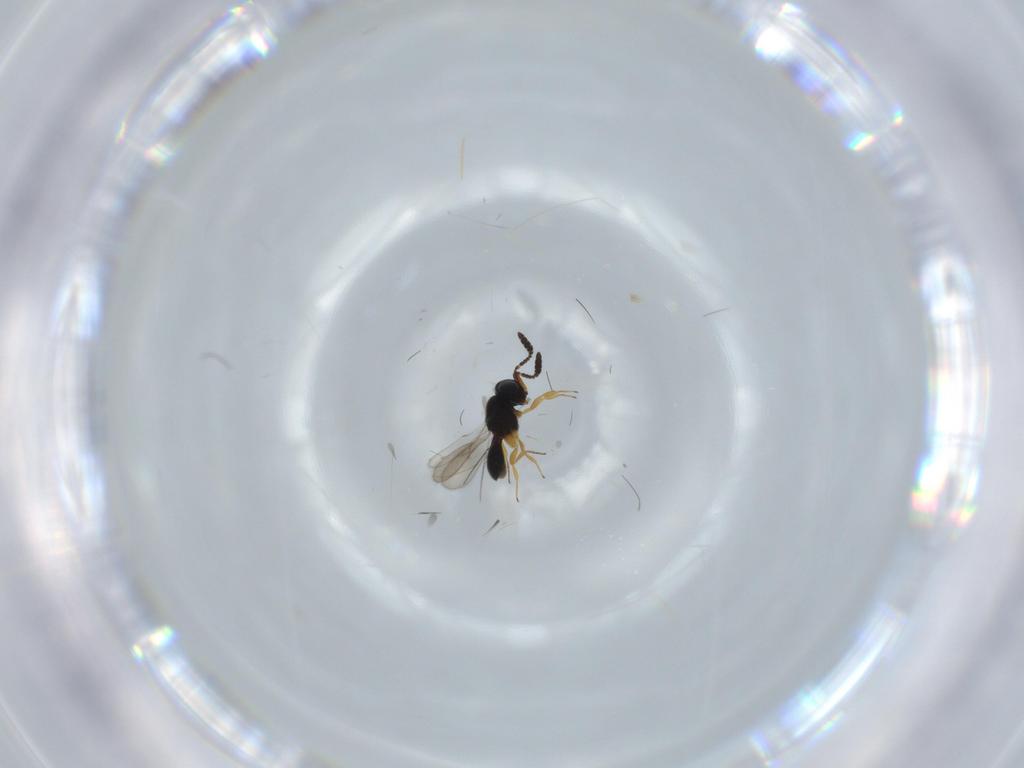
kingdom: Animalia
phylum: Arthropoda
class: Insecta
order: Hymenoptera
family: Scelionidae
